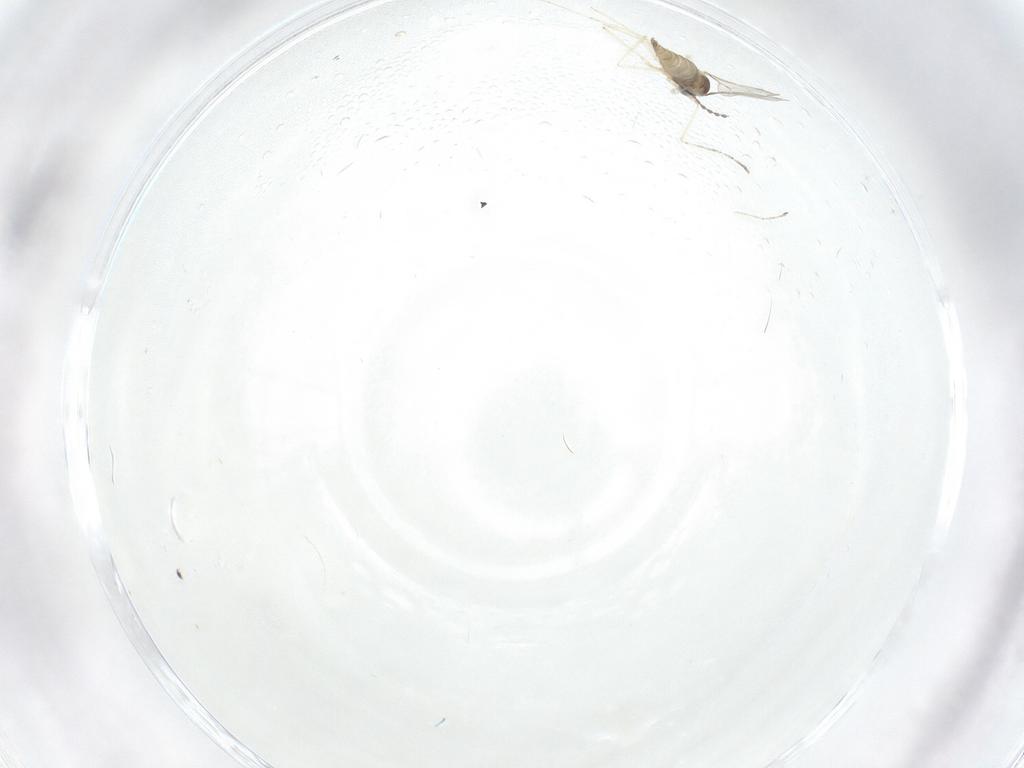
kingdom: Animalia
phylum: Arthropoda
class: Insecta
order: Diptera
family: Cecidomyiidae
